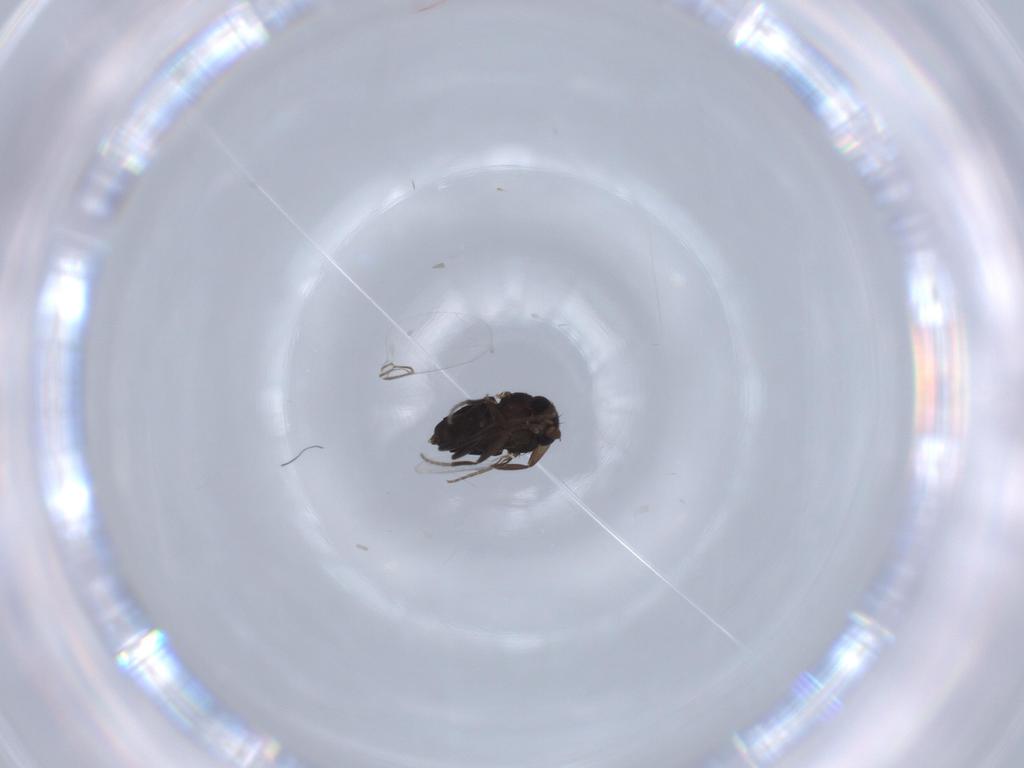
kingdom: Animalia
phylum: Arthropoda
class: Insecta
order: Diptera
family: Phoridae
